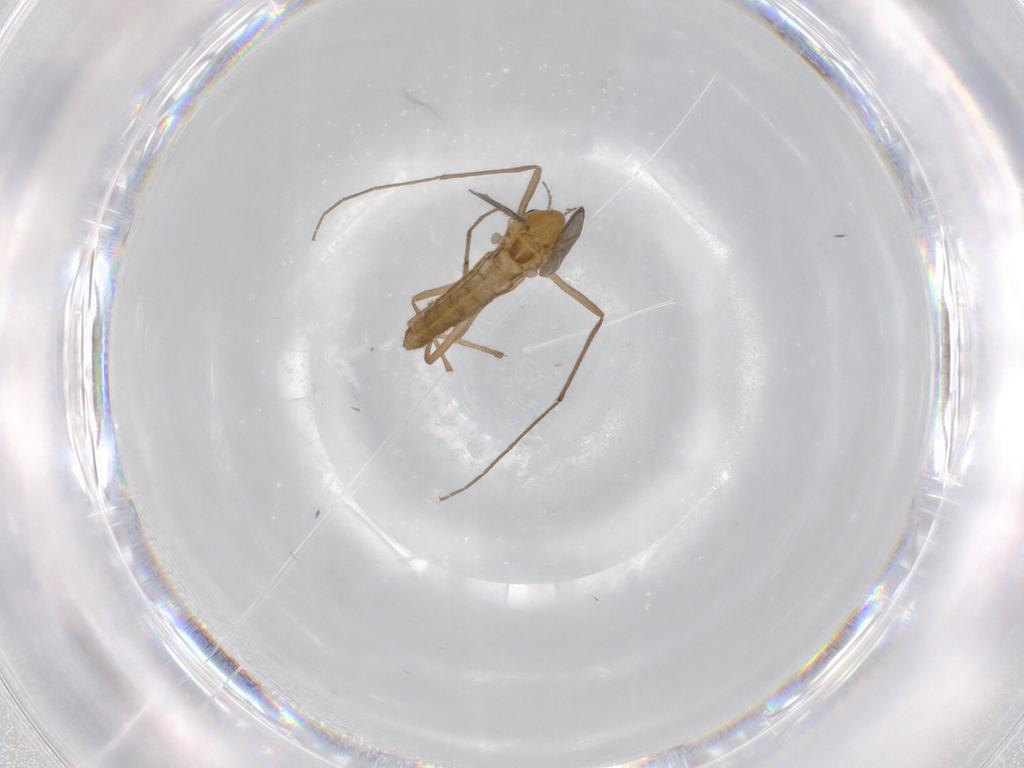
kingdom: Animalia
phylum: Arthropoda
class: Insecta
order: Diptera
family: Chironomidae
